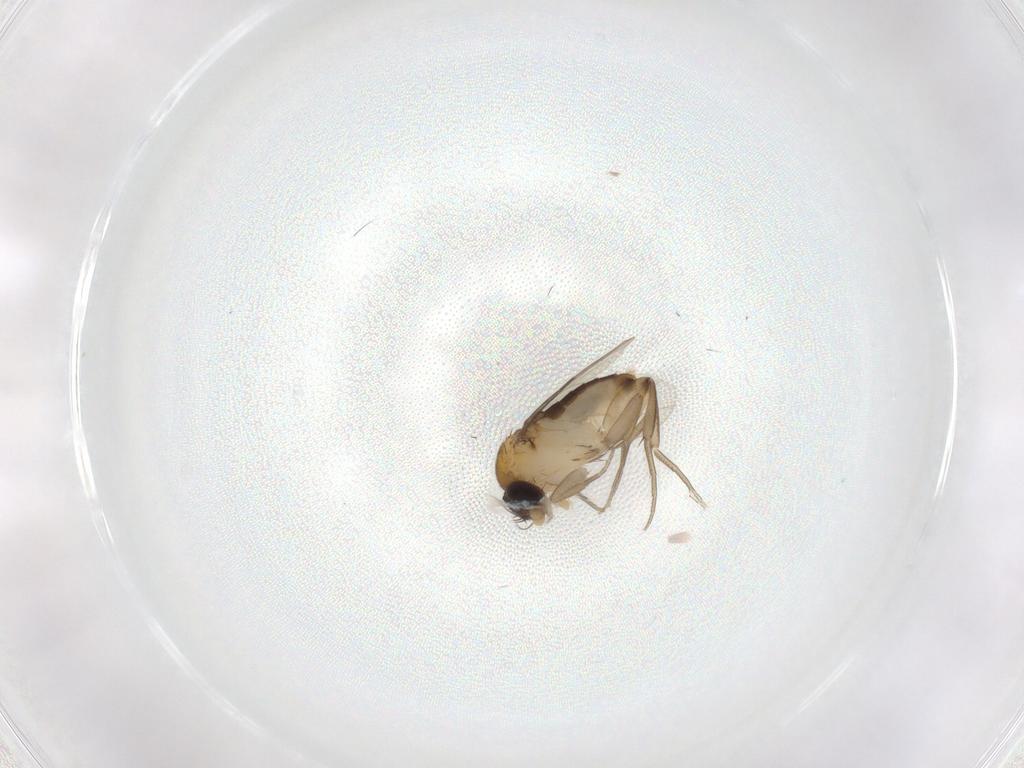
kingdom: Animalia
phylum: Arthropoda
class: Insecta
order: Diptera
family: Phoridae
